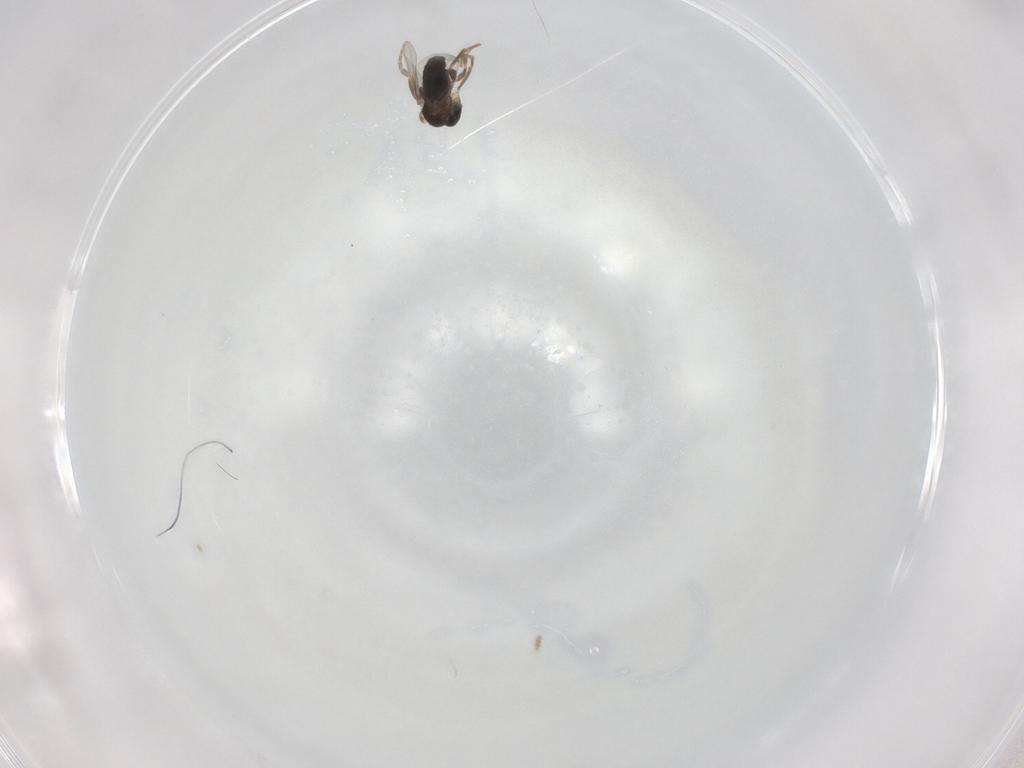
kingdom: Animalia
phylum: Arthropoda
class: Insecta
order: Diptera
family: Phoridae
